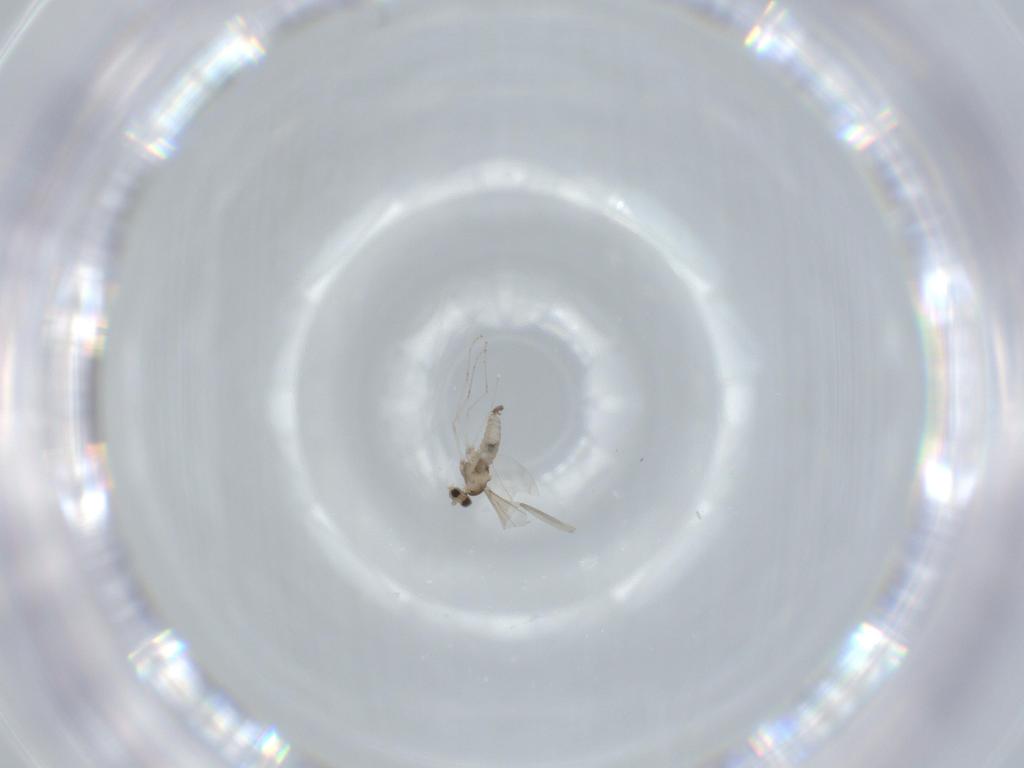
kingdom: Animalia
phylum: Arthropoda
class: Insecta
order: Diptera
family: Cecidomyiidae
